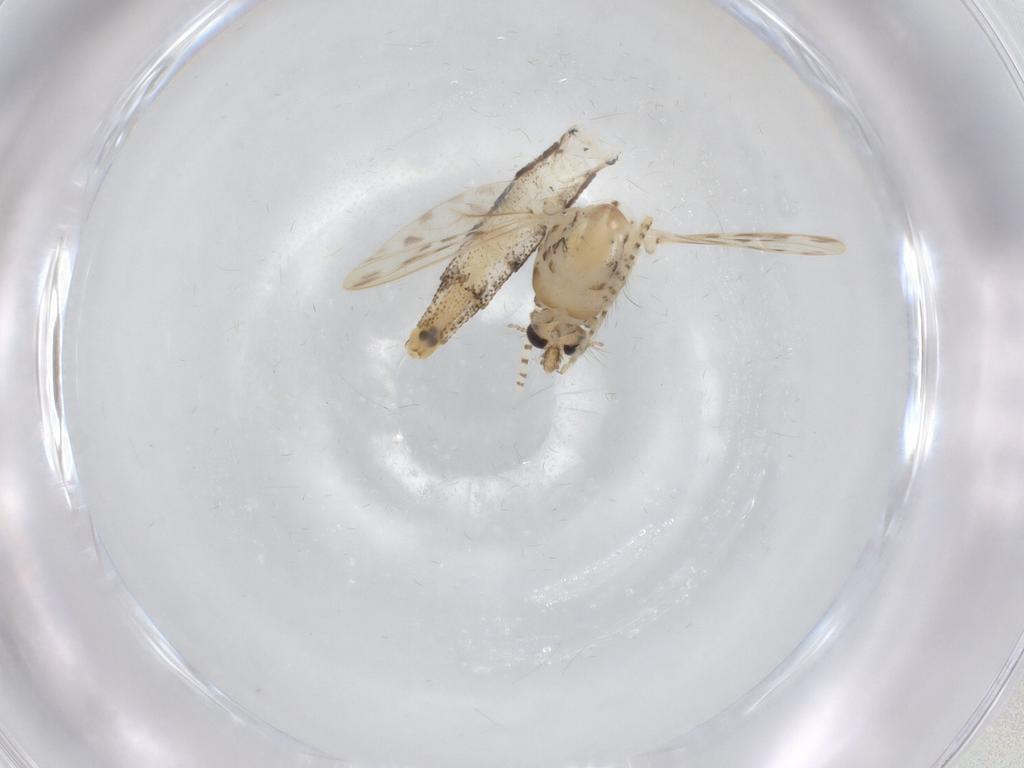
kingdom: Animalia
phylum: Arthropoda
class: Insecta
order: Diptera
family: Chaoboridae
